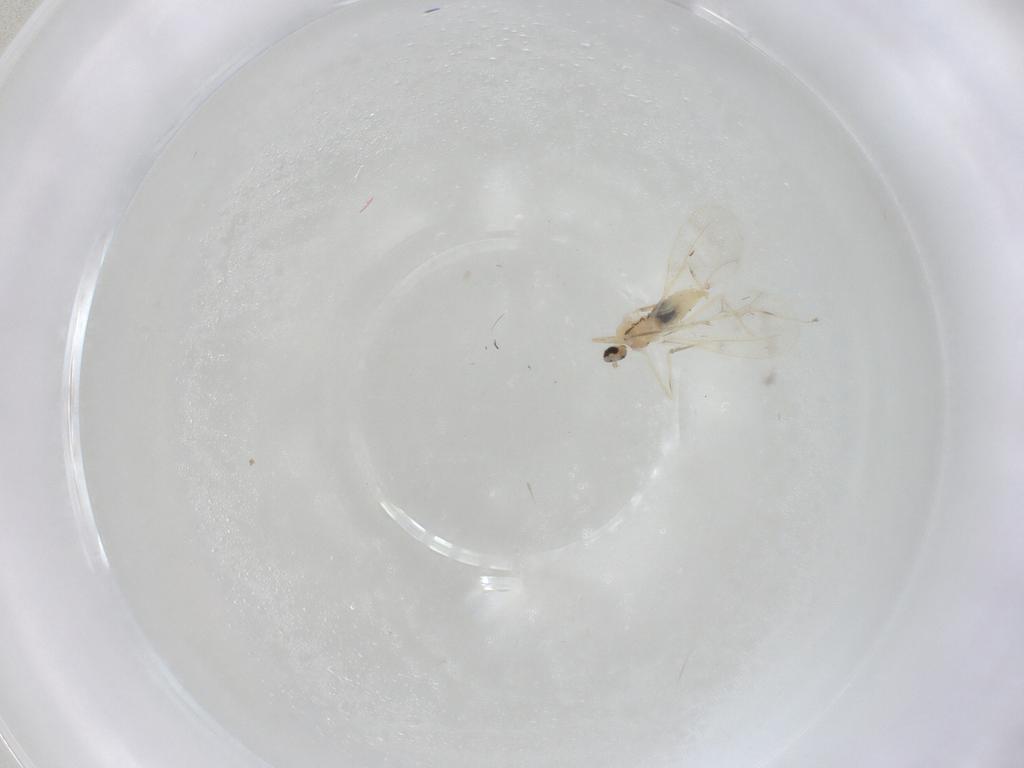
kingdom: Animalia
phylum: Arthropoda
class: Insecta
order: Diptera
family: Cecidomyiidae
